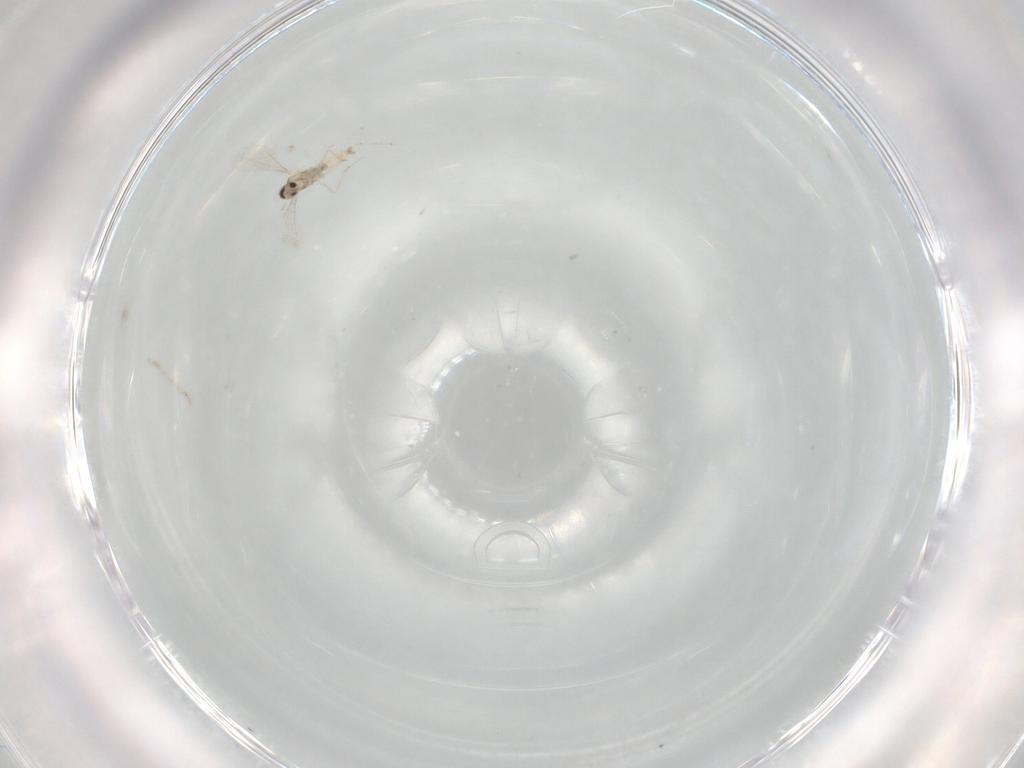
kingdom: Animalia
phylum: Arthropoda
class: Insecta
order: Diptera
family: Cecidomyiidae
